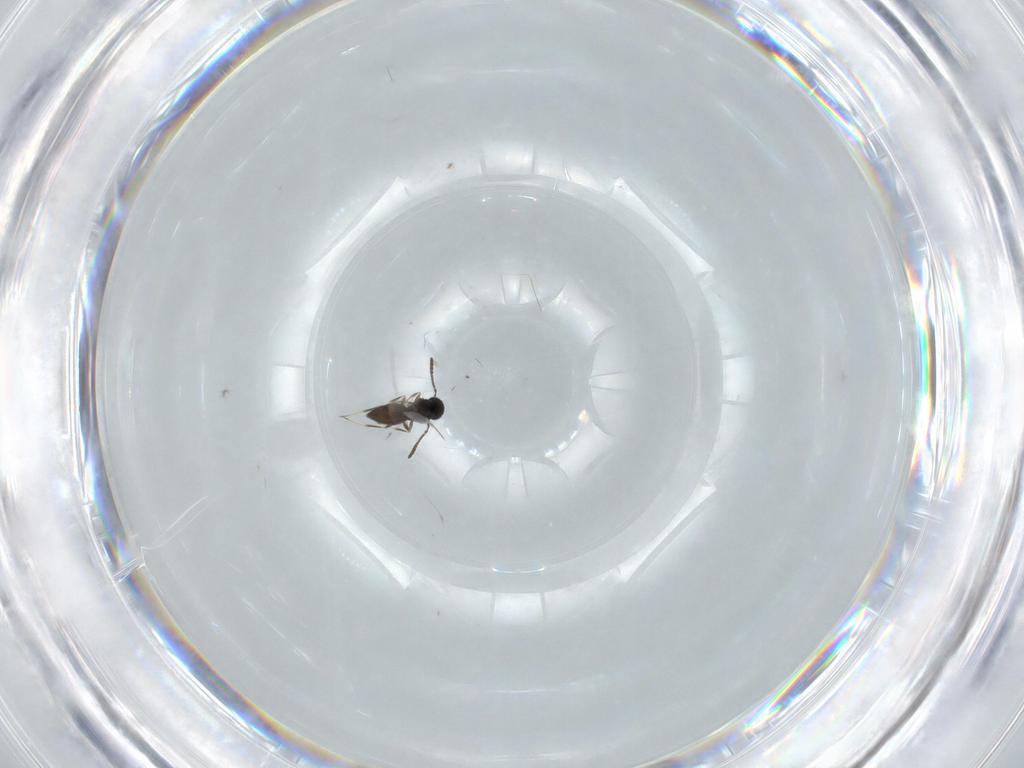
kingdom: Animalia
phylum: Arthropoda
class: Insecta
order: Hymenoptera
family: Scelionidae
